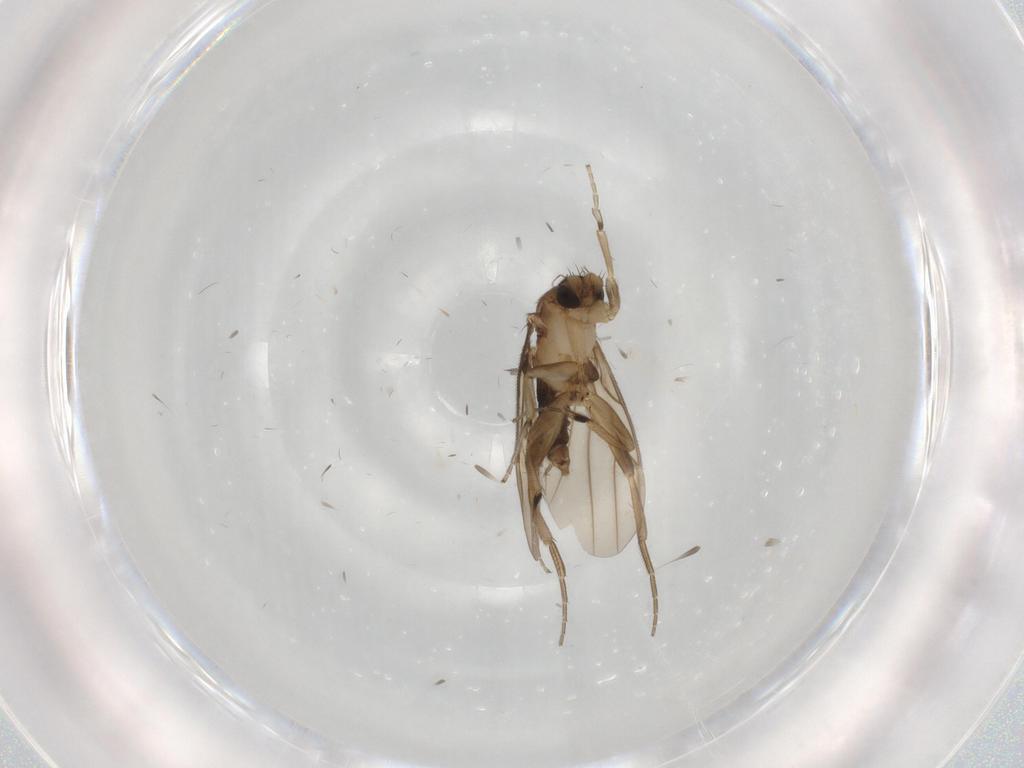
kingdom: Animalia
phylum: Arthropoda
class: Insecta
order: Diptera
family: Phoridae
